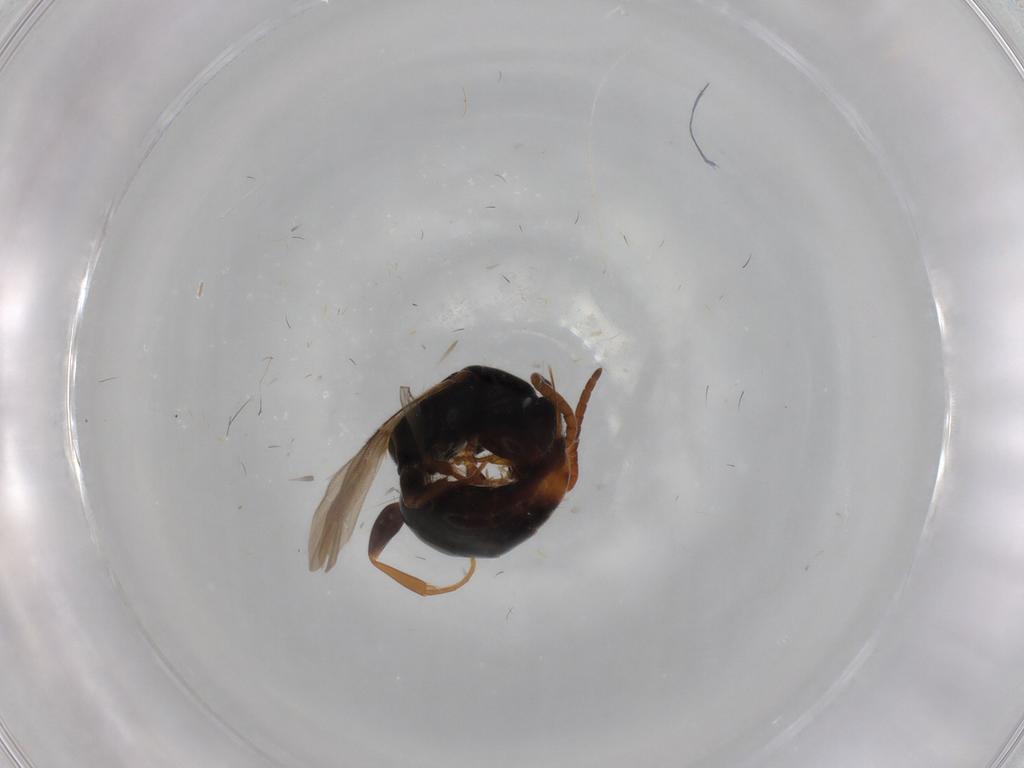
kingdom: Animalia
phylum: Arthropoda
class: Insecta
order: Hymenoptera
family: Bethylidae
